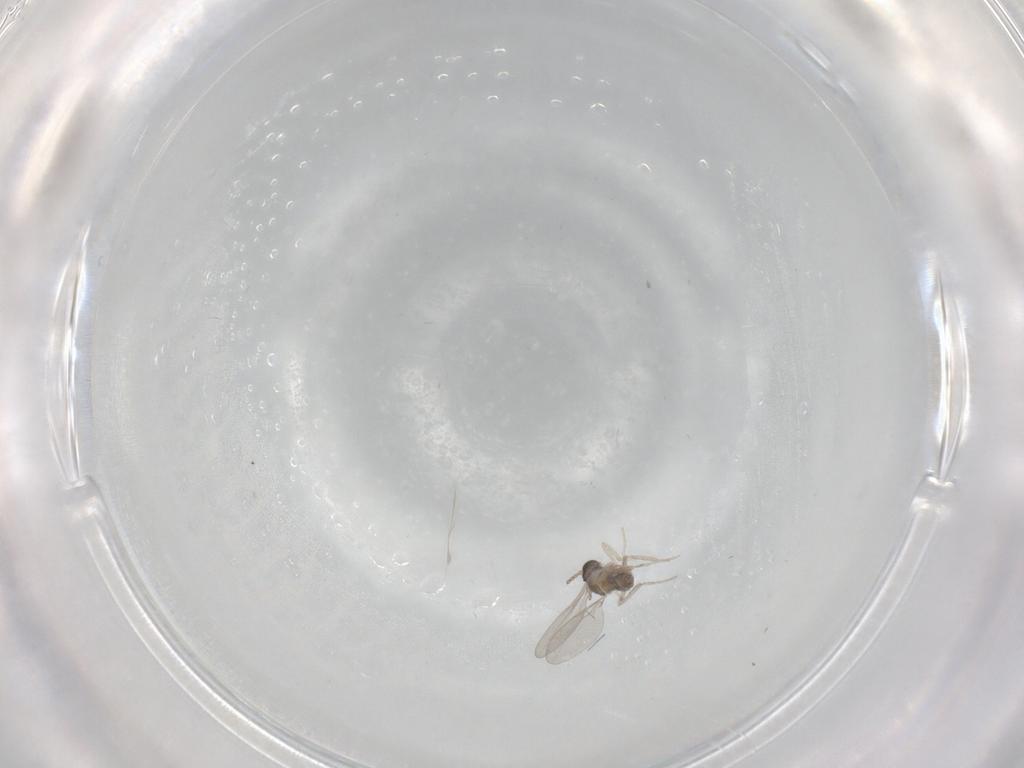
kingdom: Animalia
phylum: Arthropoda
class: Insecta
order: Diptera
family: Cecidomyiidae
